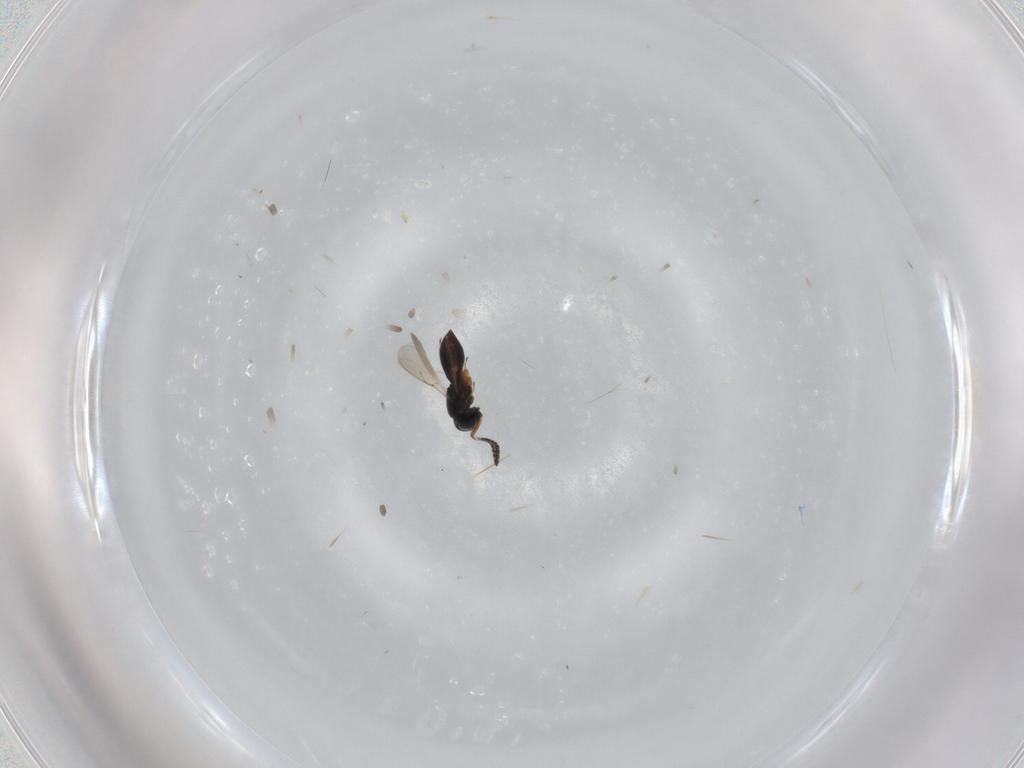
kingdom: Animalia
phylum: Arthropoda
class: Insecta
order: Hymenoptera
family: Scelionidae
